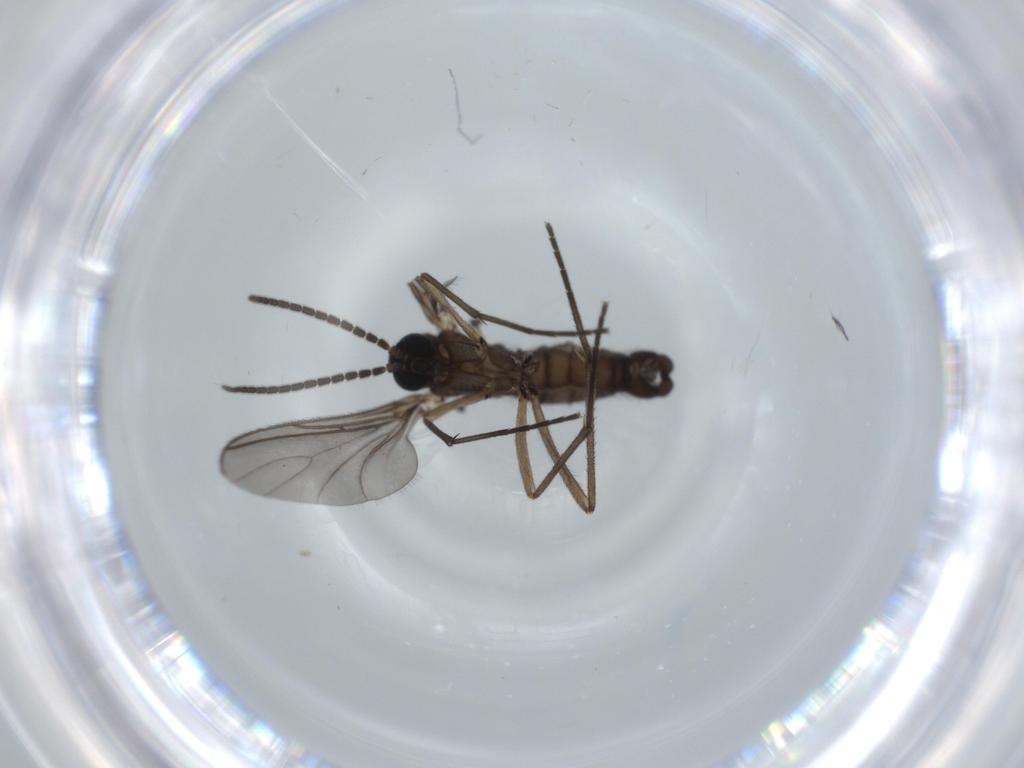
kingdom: Animalia
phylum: Arthropoda
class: Insecta
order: Diptera
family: Sciaridae
